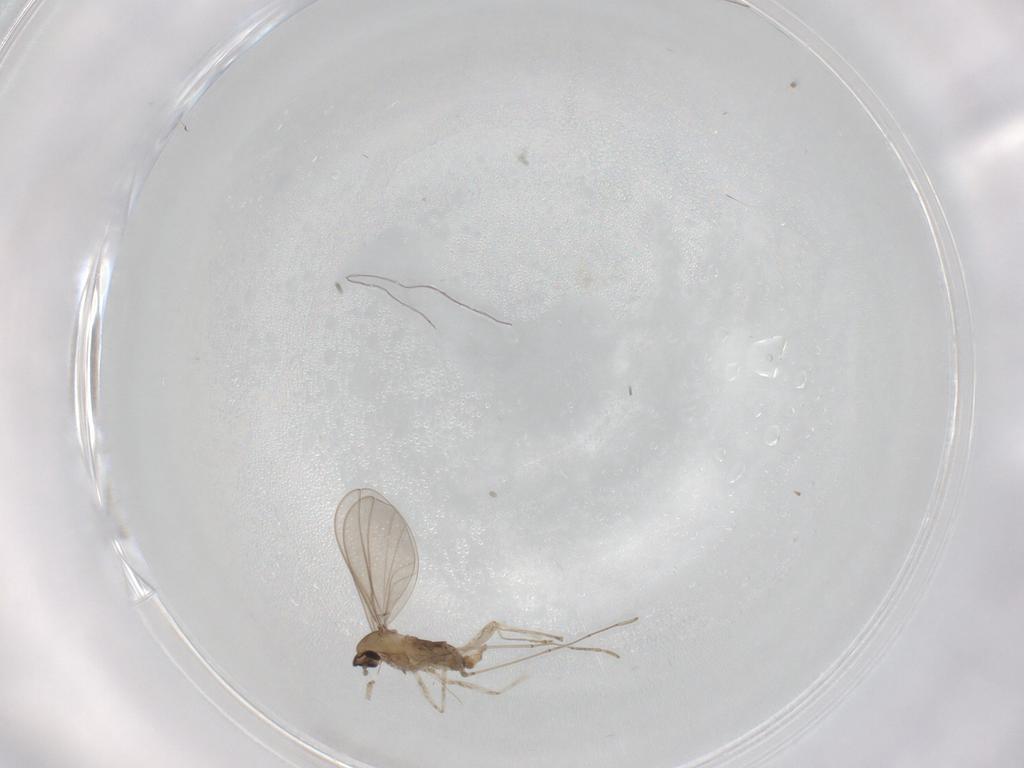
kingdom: Animalia
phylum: Arthropoda
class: Insecta
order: Diptera
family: Cecidomyiidae
